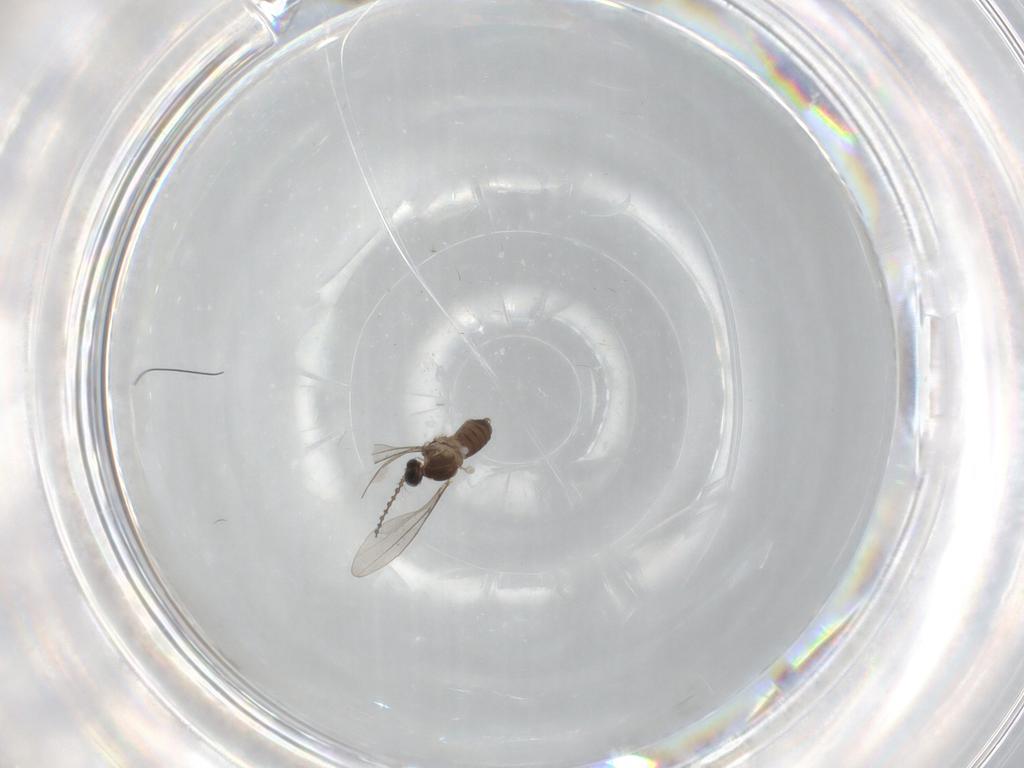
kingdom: Animalia
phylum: Arthropoda
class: Insecta
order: Diptera
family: Cecidomyiidae
